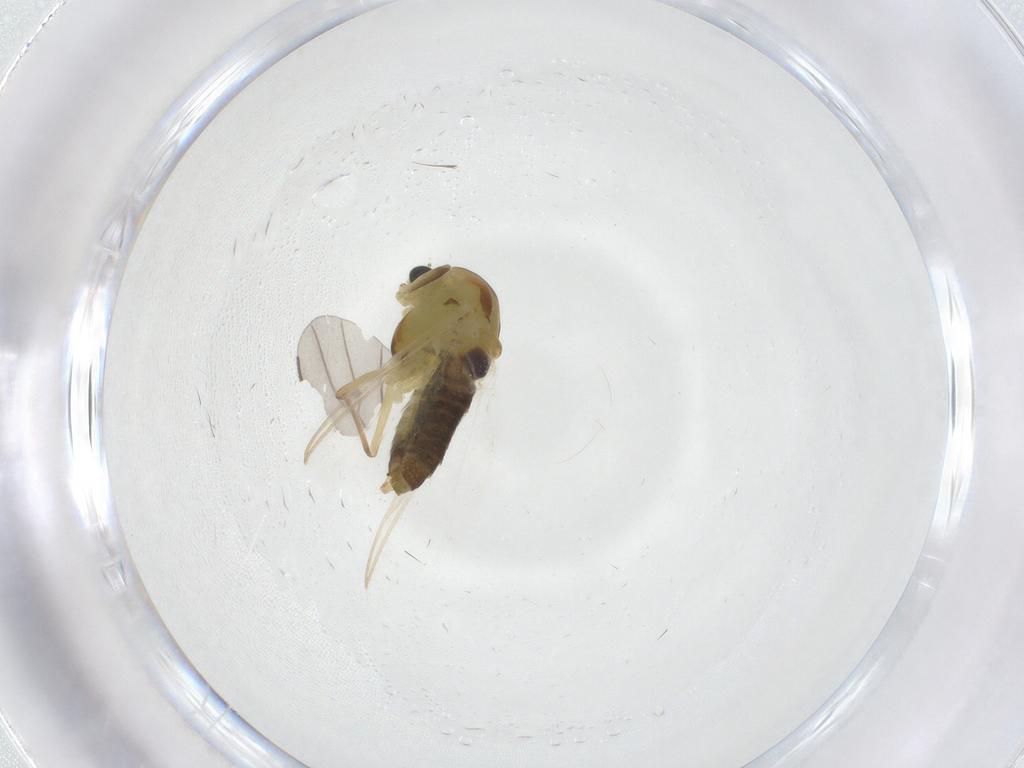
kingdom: Animalia
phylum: Arthropoda
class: Insecta
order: Diptera
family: Chironomidae
